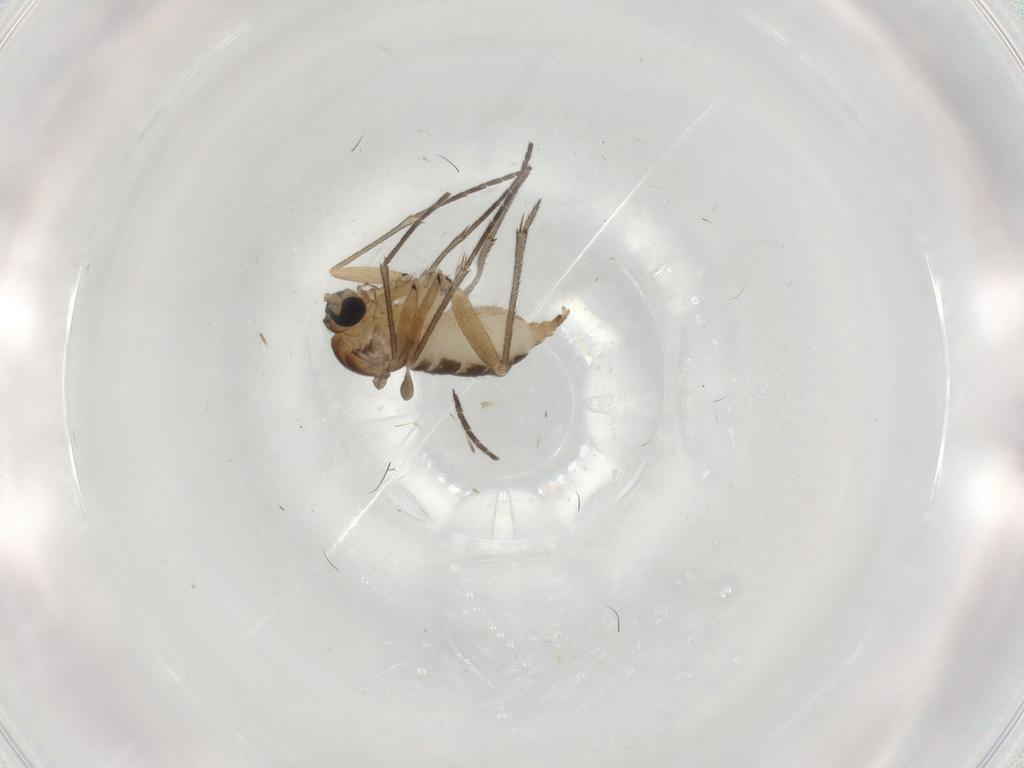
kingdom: Animalia
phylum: Arthropoda
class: Insecta
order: Diptera
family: Sciaridae
